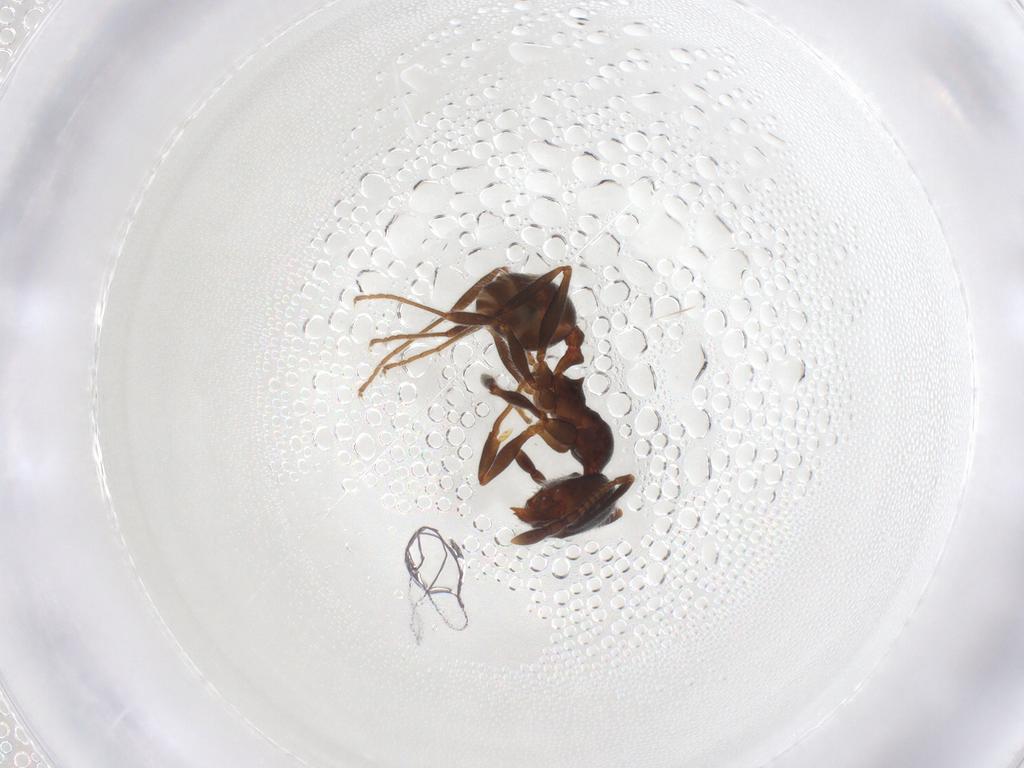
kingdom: Animalia
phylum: Arthropoda
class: Insecta
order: Hymenoptera
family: Formicidae
